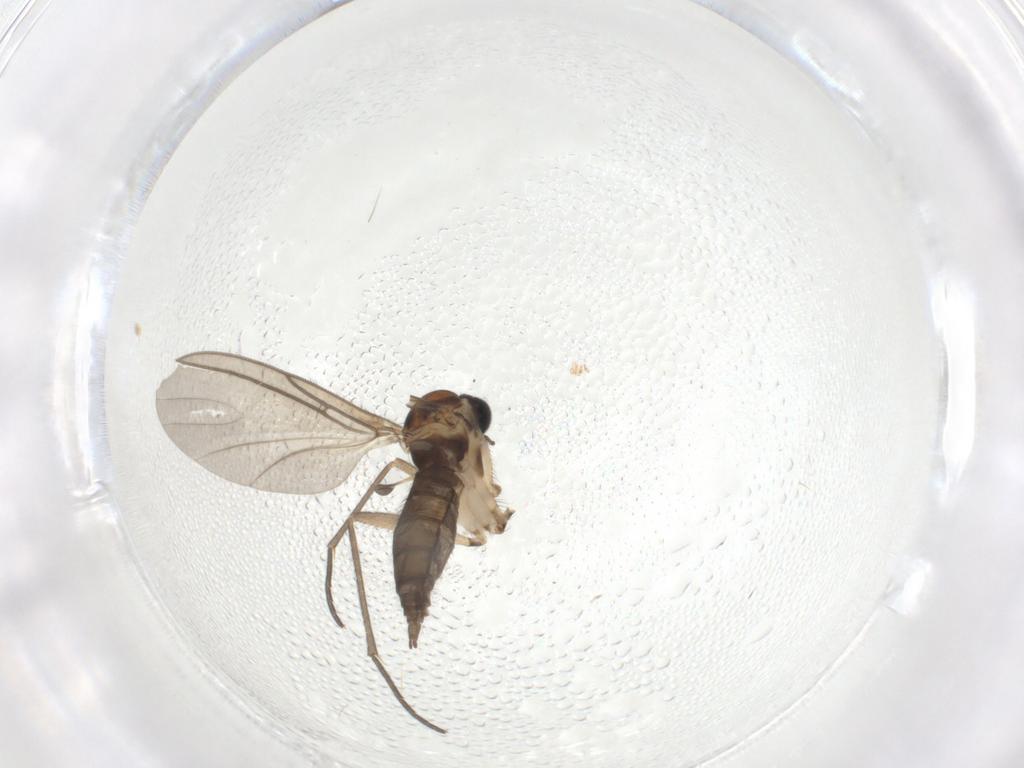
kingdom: Animalia
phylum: Arthropoda
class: Insecta
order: Diptera
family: Sciaridae
